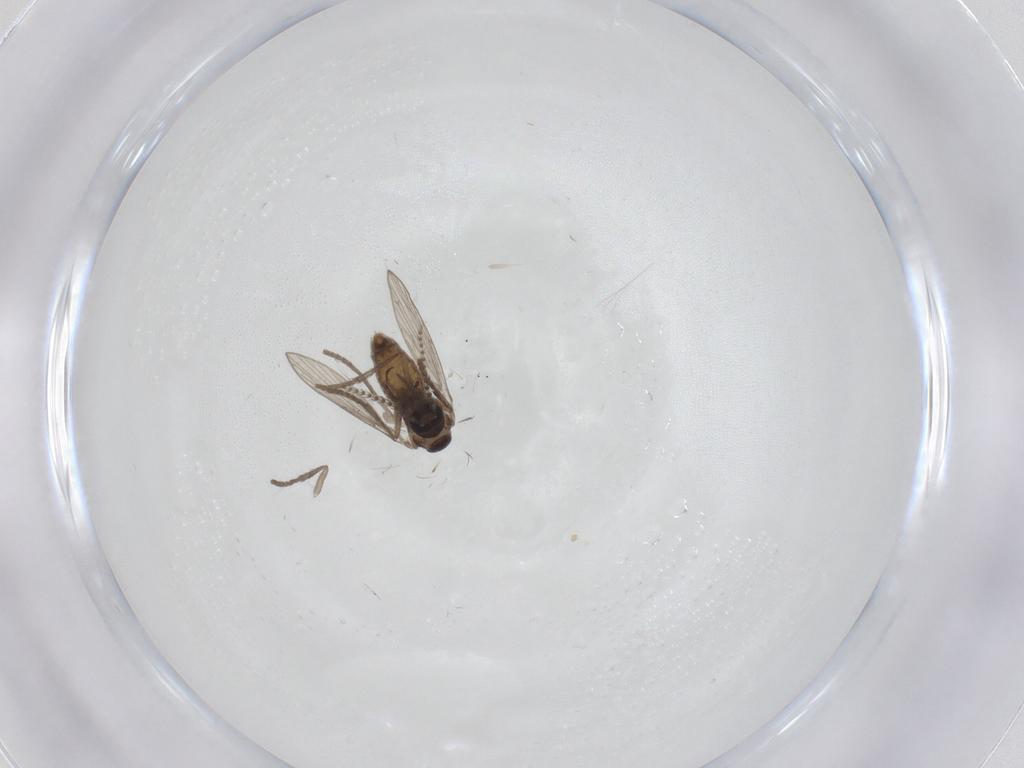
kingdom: Animalia
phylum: Arthropoda
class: Insecta
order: Diptera
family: Psychodidae
